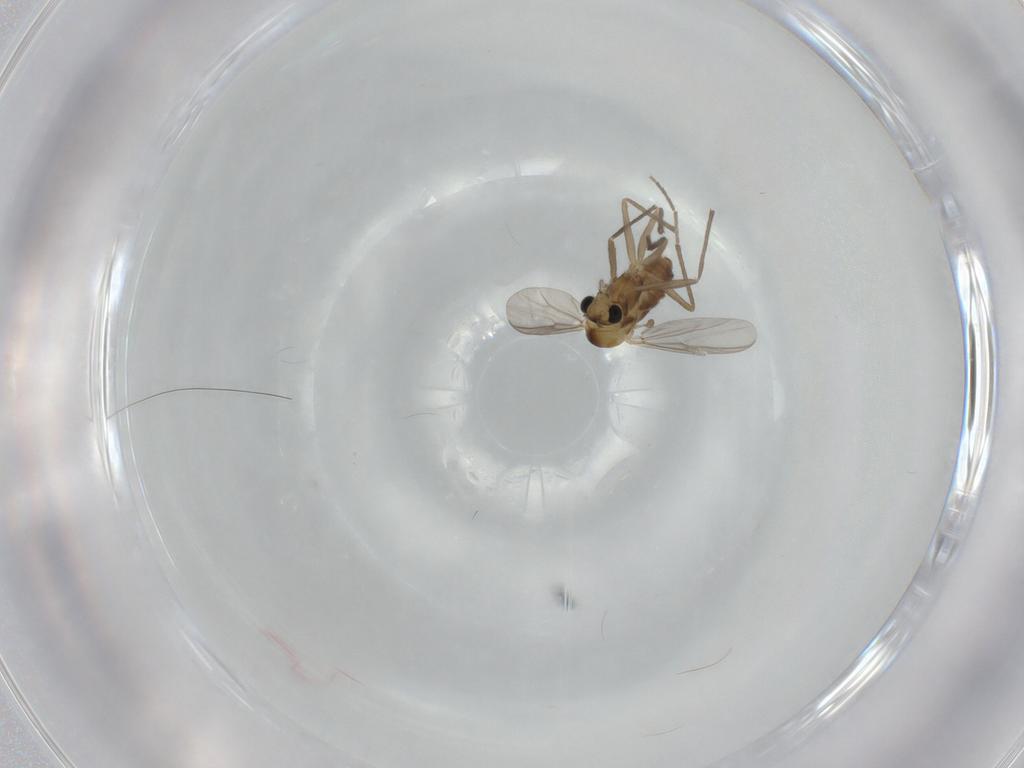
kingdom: Animalia
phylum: Arthropoda
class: Insecta
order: Diptera
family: Chironomidae
